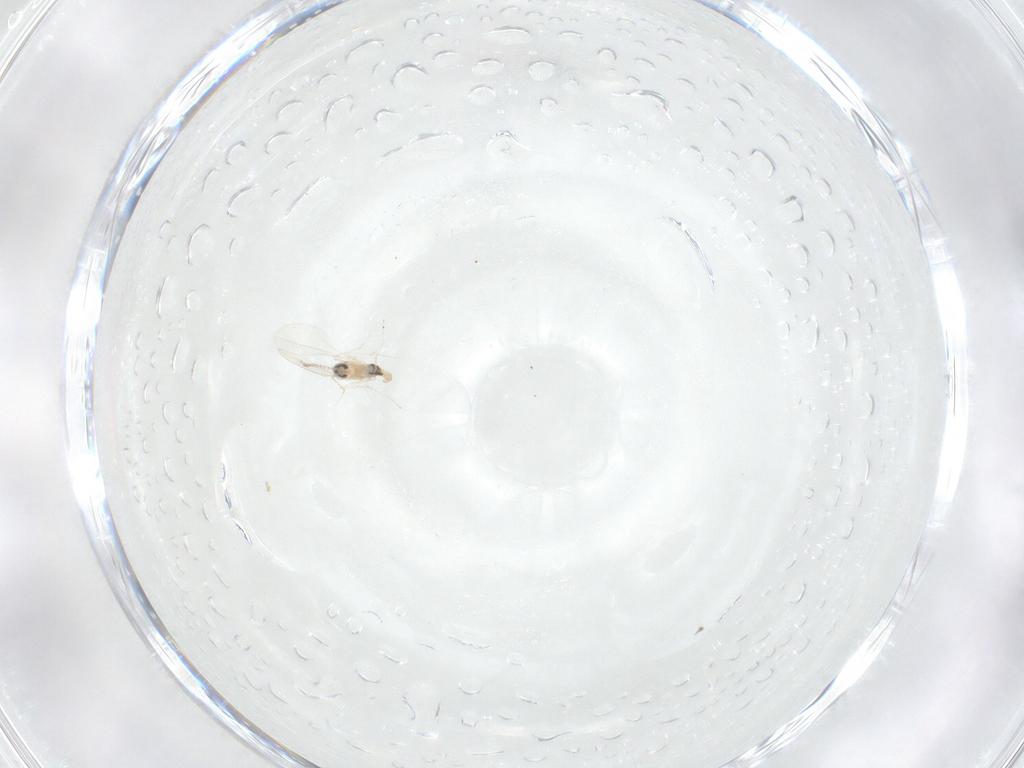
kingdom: Animalia
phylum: Arthropoda
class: Insecta
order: Diptera
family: Cecidomyiidae
